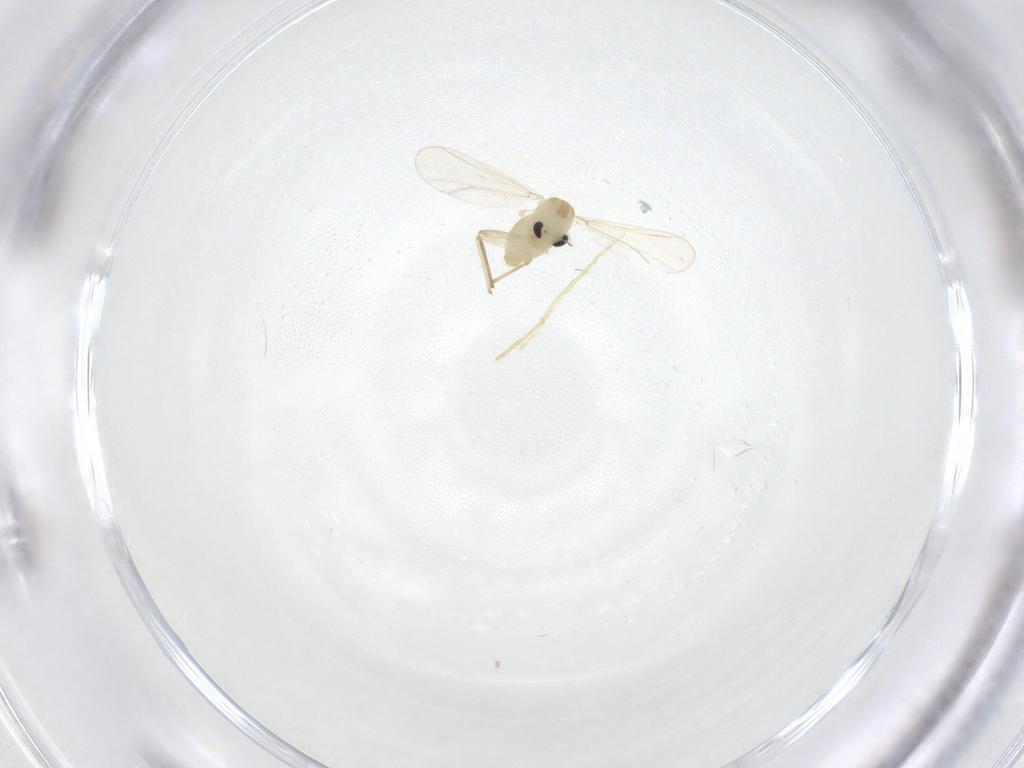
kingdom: Animalia
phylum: Arthropoda
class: Insecta
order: Diptera
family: Chironomidae
